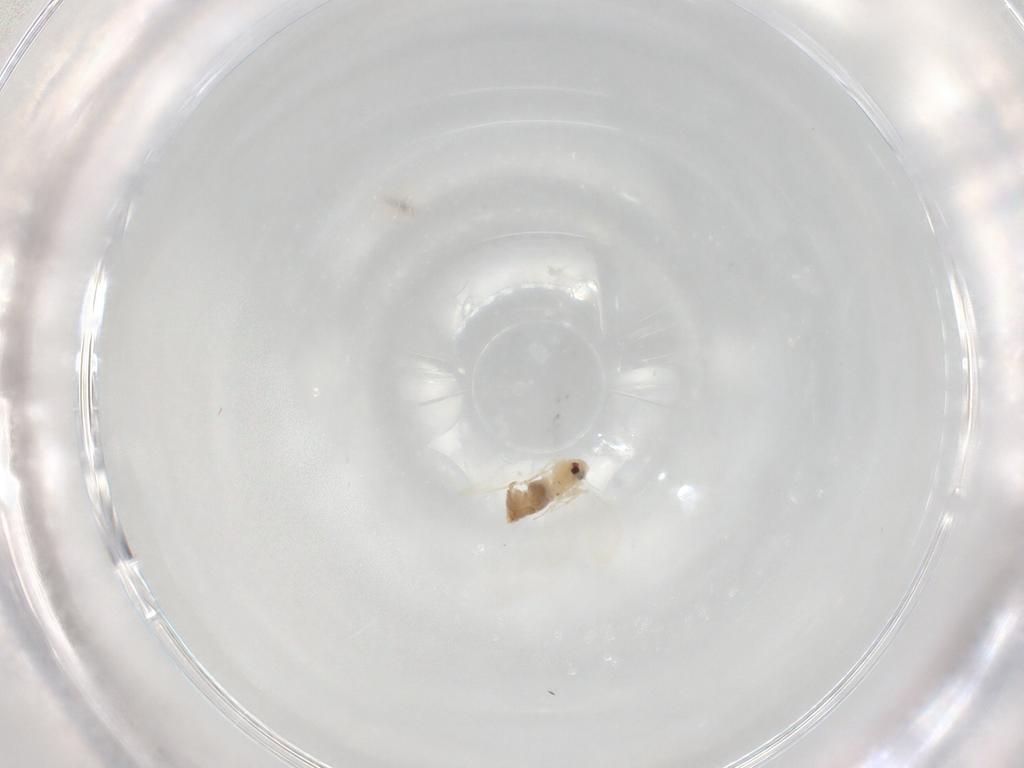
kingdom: Animalia
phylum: Arthropoda
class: Insecta
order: Hemiptera
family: Aleyrodidae
